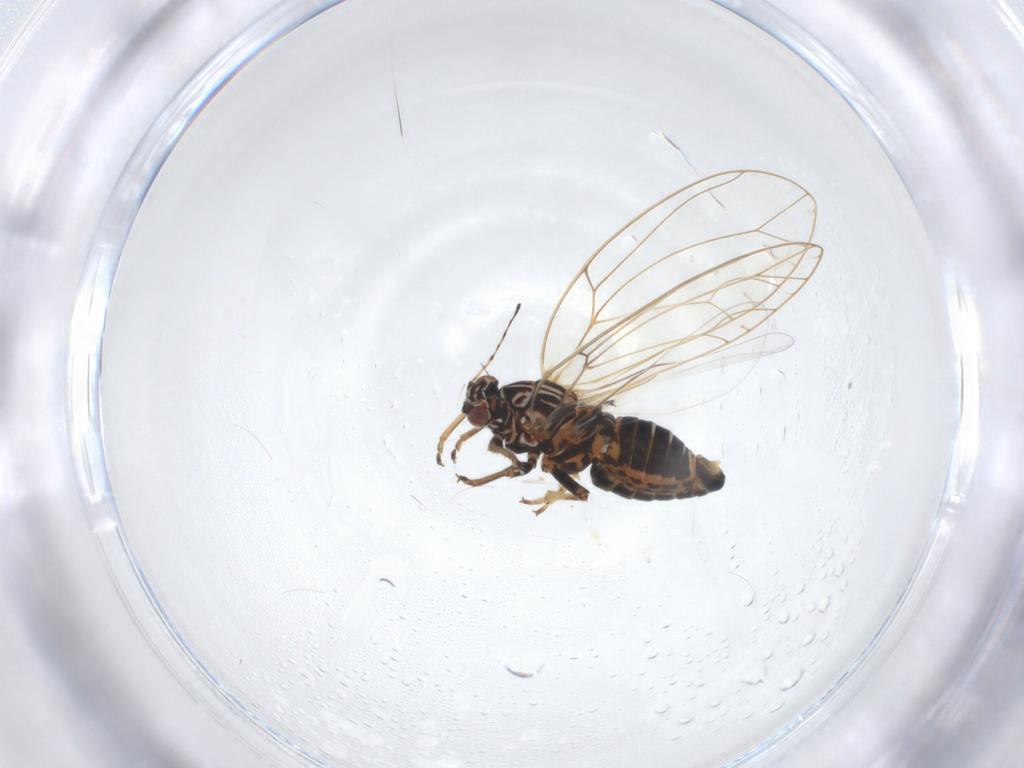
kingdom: Animalia
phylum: Arthropoda
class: Insecta
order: Hemiptera
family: Triozidae
